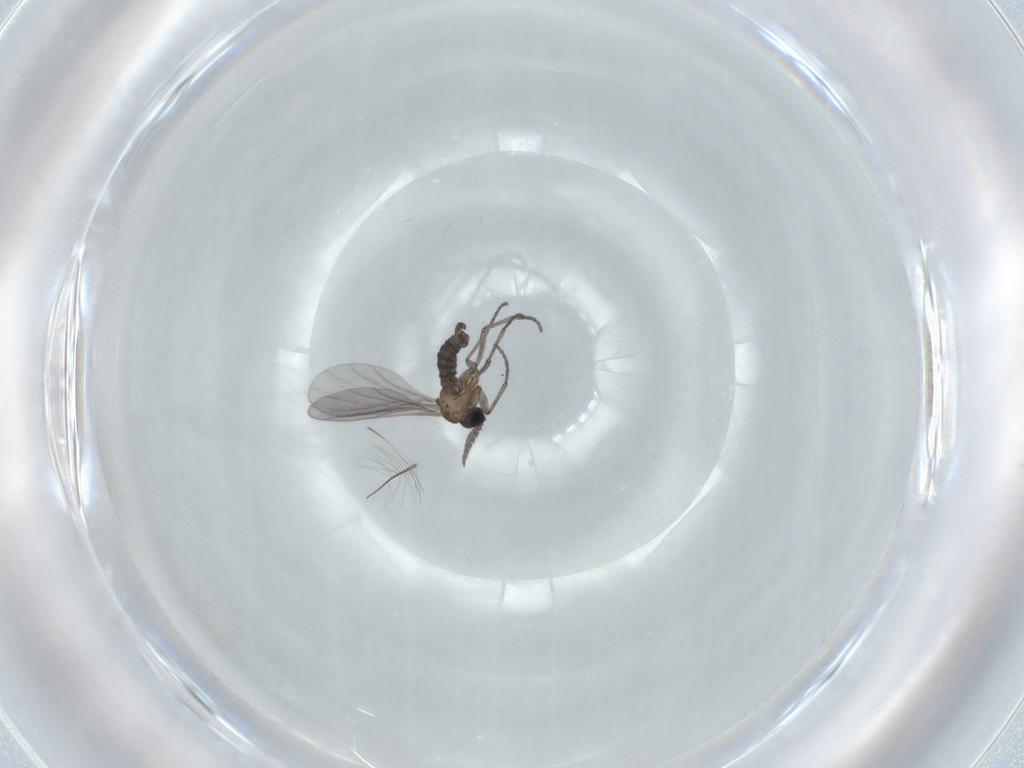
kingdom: Animalia
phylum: Arthropoda
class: Insecta
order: Diptera
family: Sciaridae
